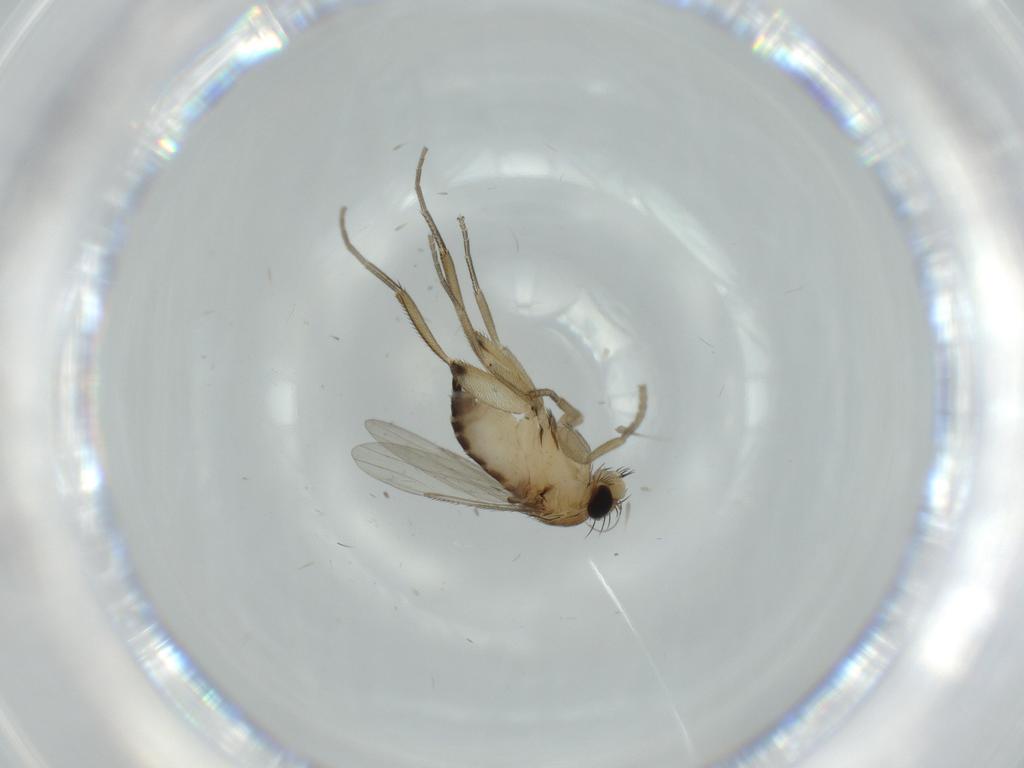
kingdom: Animalia
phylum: Arthropoda
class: Insecta
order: Diptera
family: Phoridae
